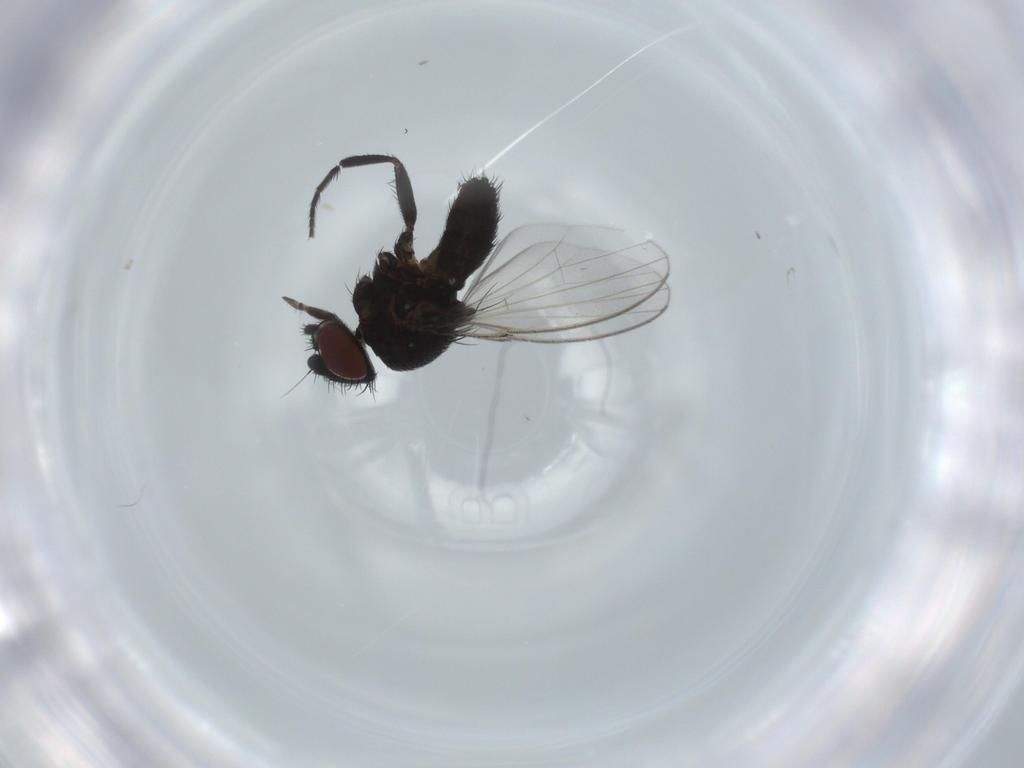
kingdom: Animalia
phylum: Arthropoda
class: Insecta
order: Diptera
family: Milichiidae
